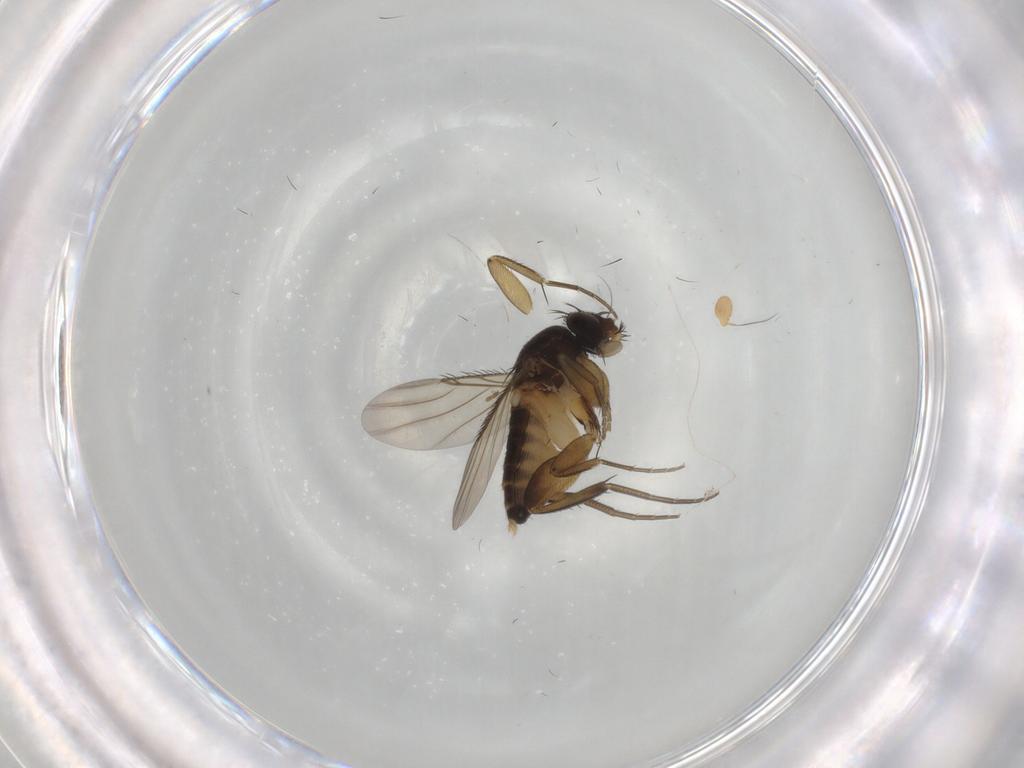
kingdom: Animalia
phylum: Arthropoda
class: Insecta
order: Diptera
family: Phoridae
